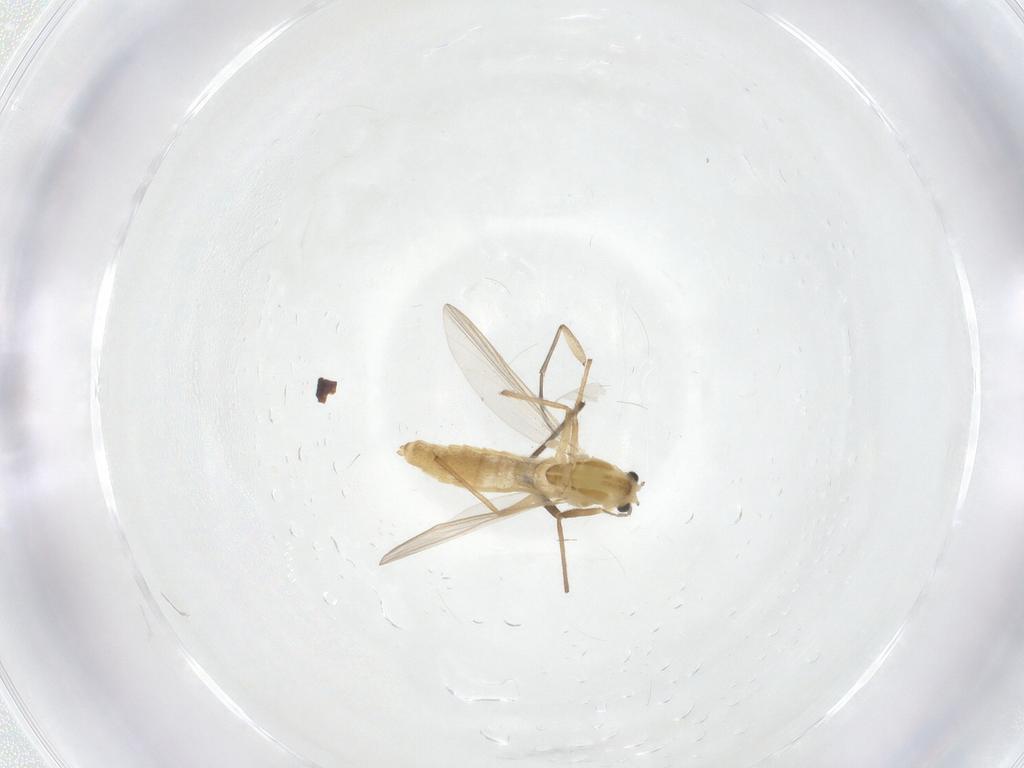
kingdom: Animalia
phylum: Arthropoda
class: Insecta
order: Diptera
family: Chironomidae
